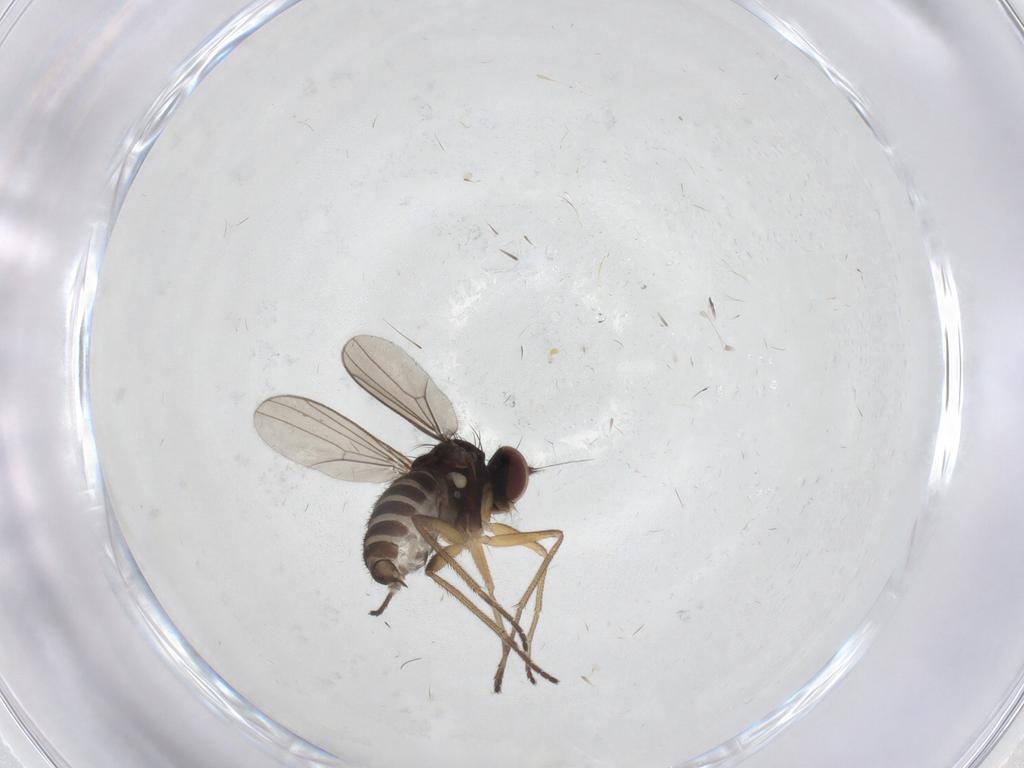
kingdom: Animalia
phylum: Arthropoda
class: Insecta
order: Diptera
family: Dolichopodidae
